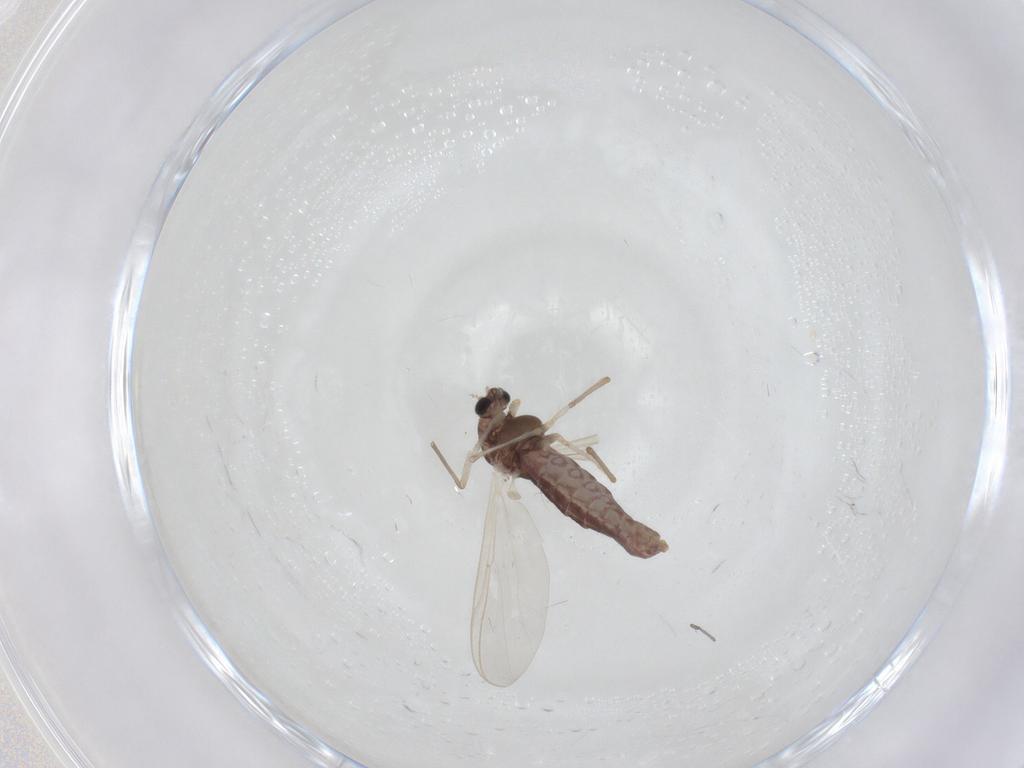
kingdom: Animalia
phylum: Arthropoda
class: Insecta
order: Diptera
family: Chironomidae
